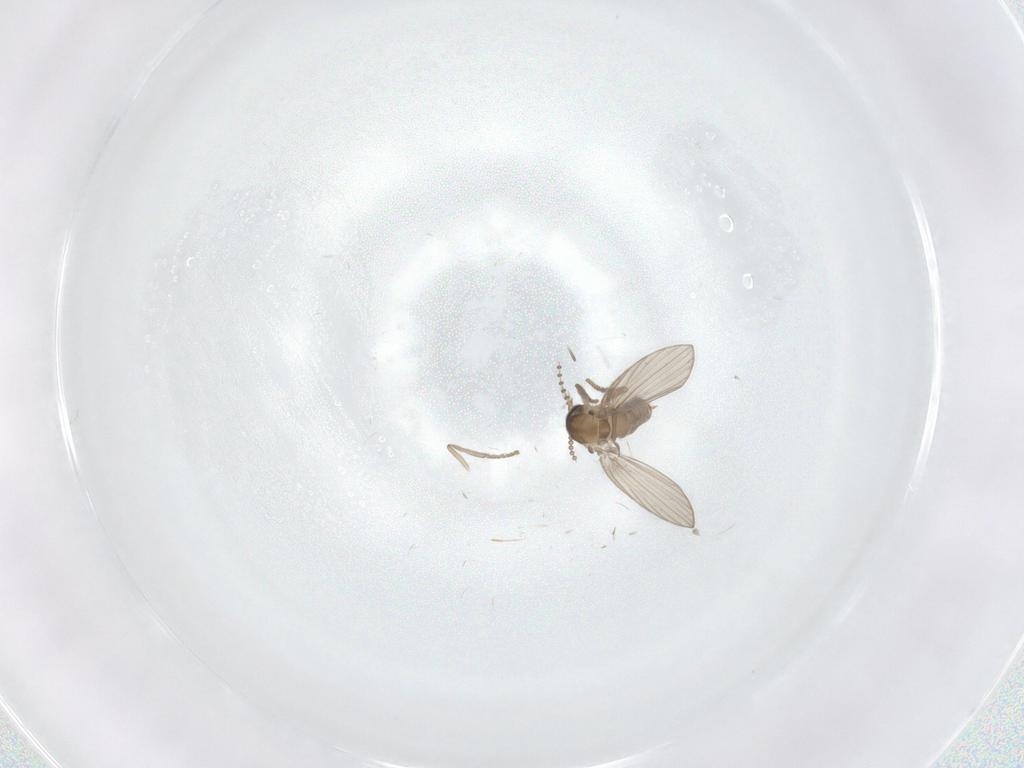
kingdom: Animalia
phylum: Arthropoda
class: Insecta
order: Diptera
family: Psychodidae
